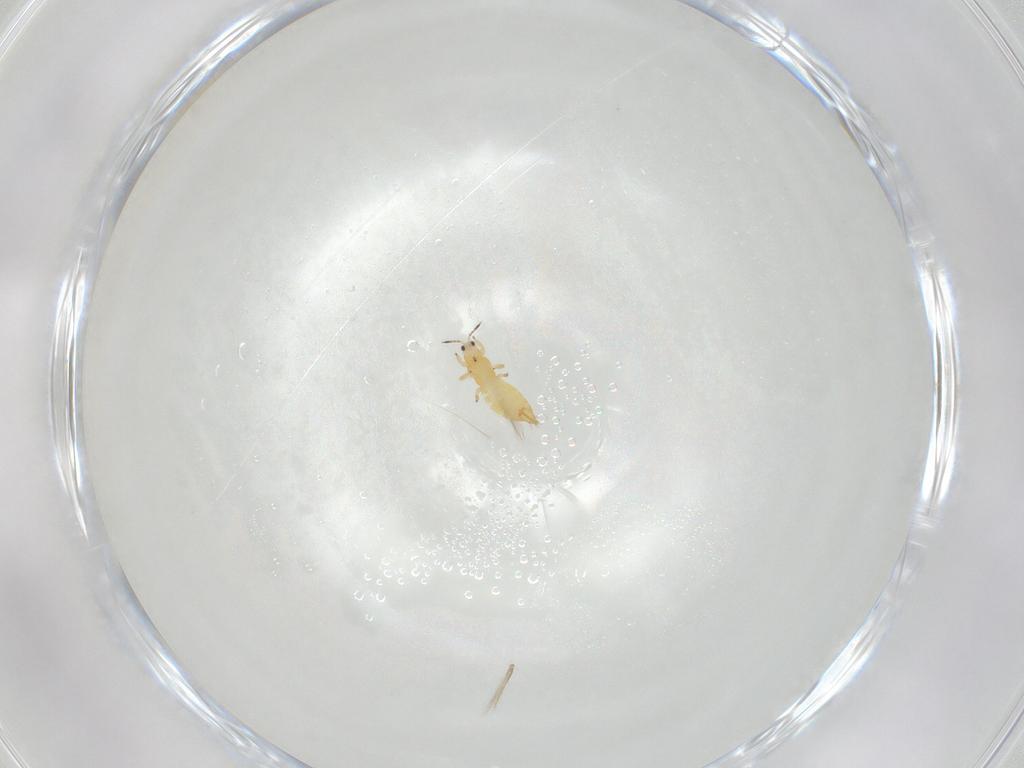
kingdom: Animalia
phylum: Arthropoda
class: Insecta
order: Thysanoptera
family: Thripidae
